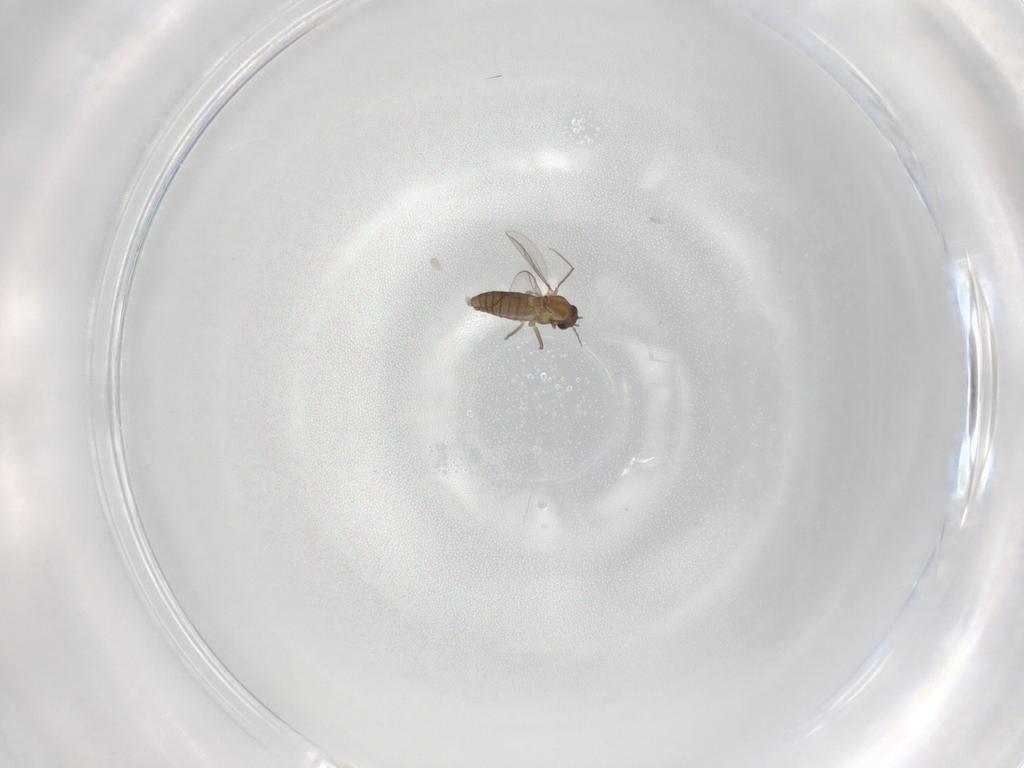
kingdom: Animalia
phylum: Arthropoda
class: Insecta
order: Diptera
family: Chironomidae
